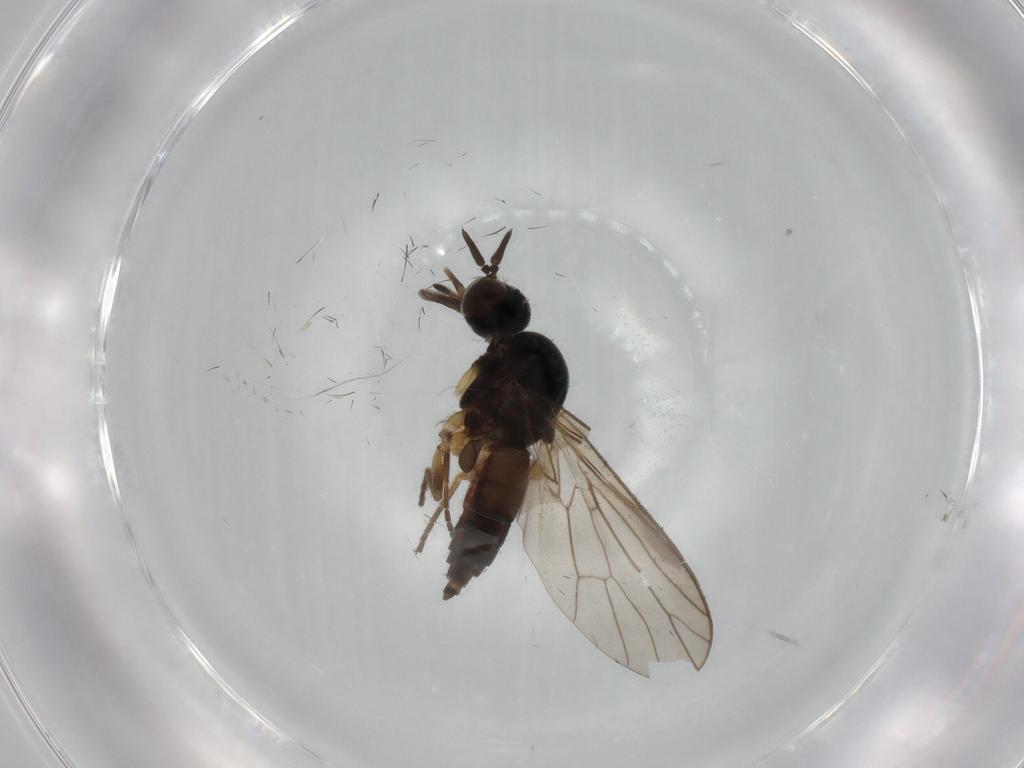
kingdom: Animalia
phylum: Arthropoda
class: Insecta
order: Diptera
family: Iteaphilidae
